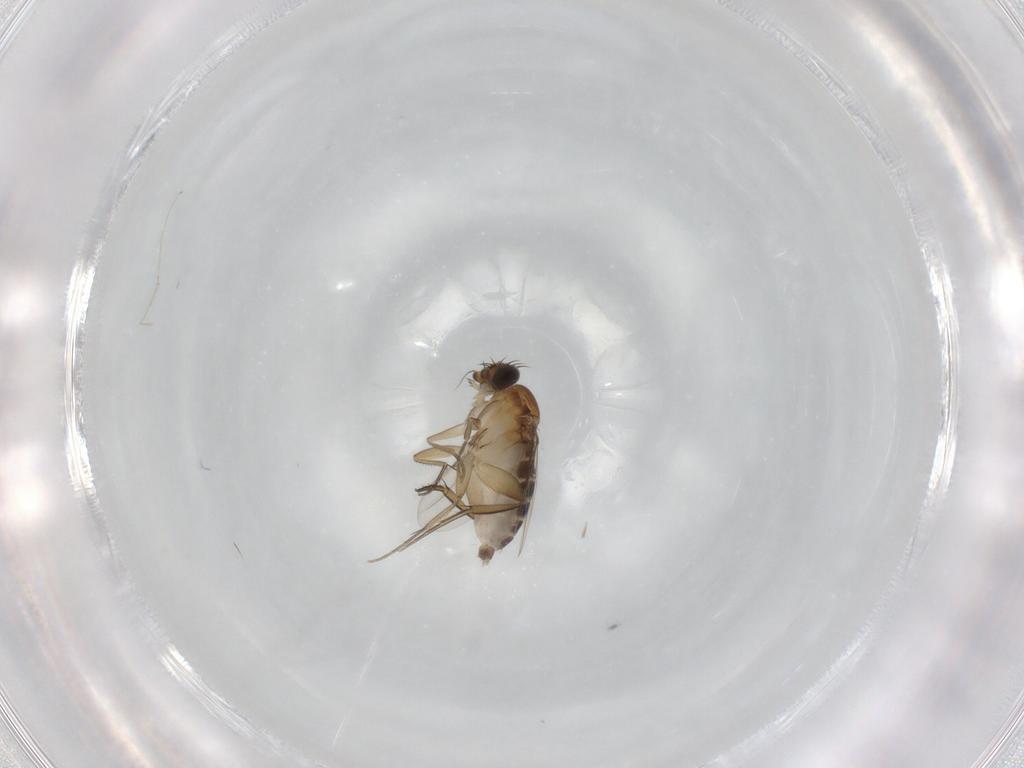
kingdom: Animalia
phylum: Arthropoda
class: Insecta
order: Diptera
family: Phoridae
